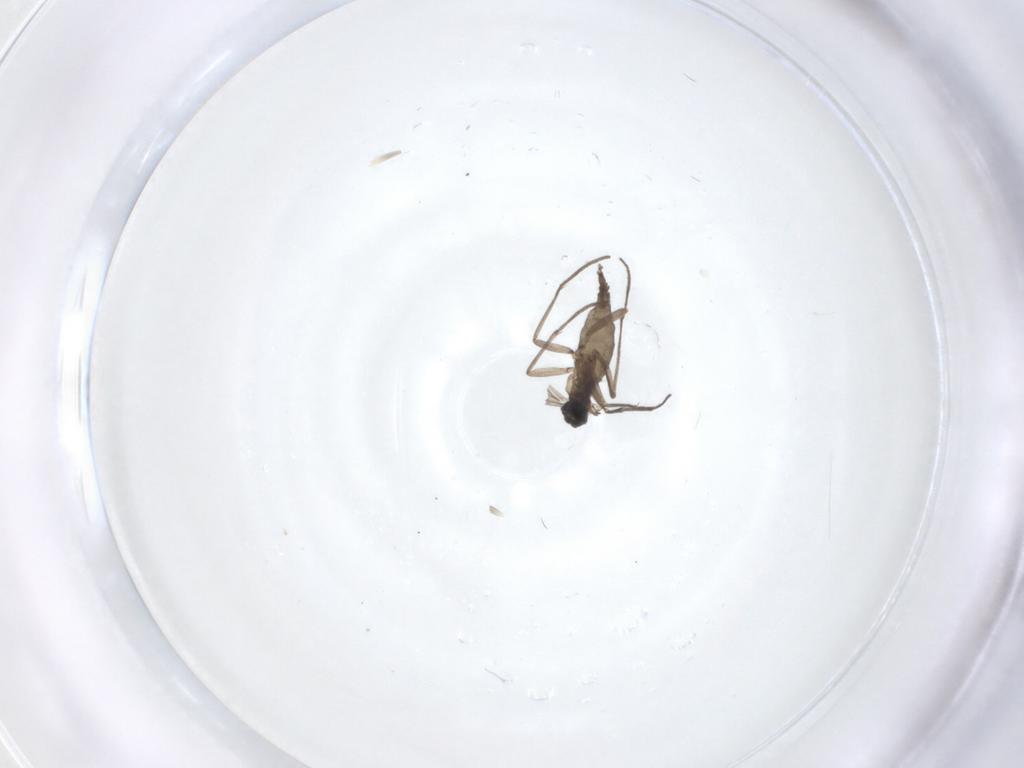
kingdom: Animalia
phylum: Arthropoda
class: Insecta
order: Diptera
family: Sciaridae
